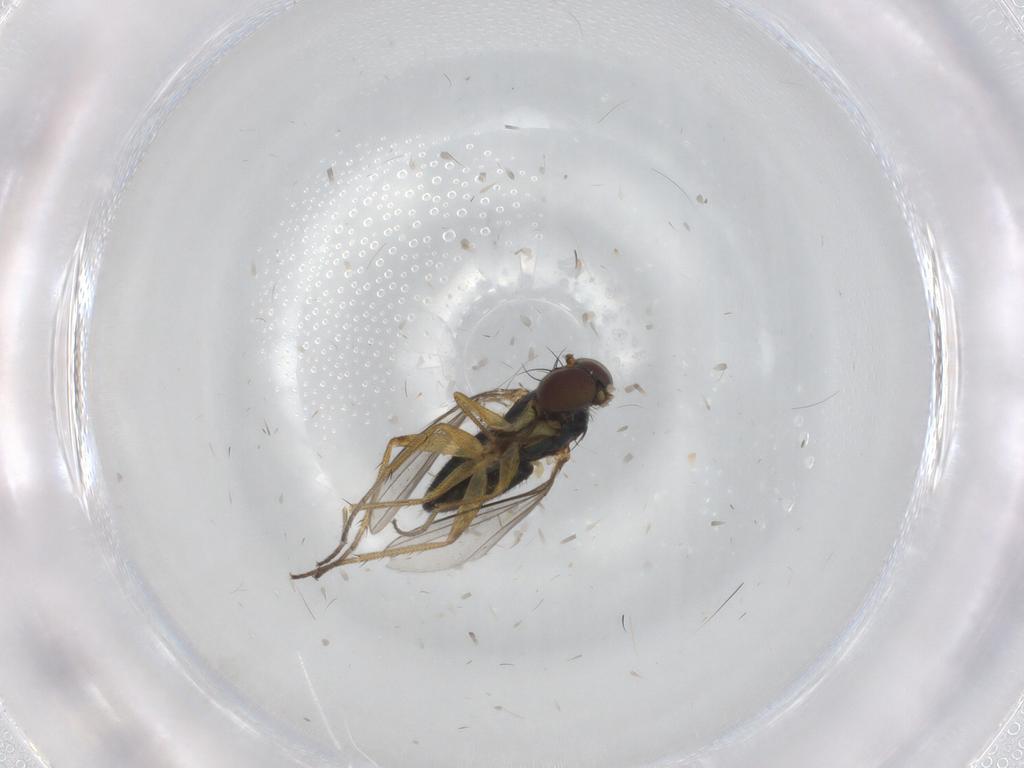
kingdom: Animalia
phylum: Arthropoda
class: Insecta
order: Diptera
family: Dolichopodidae
